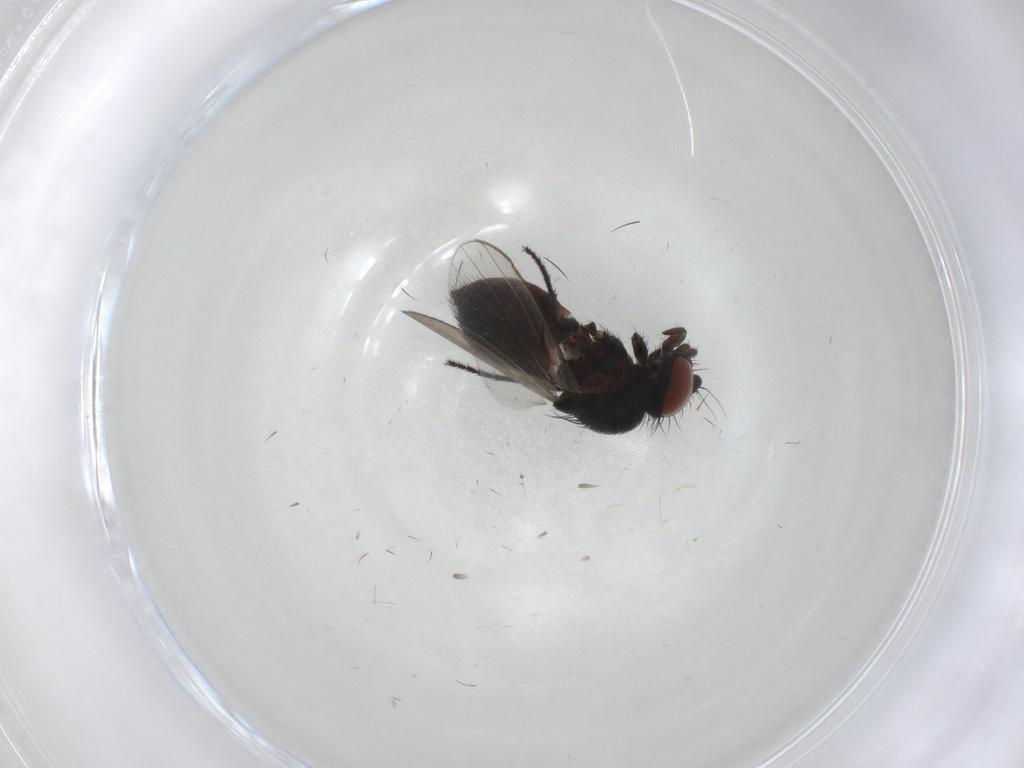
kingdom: Animalia
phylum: Arthropoda
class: Insecta
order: Diptera
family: Milichiidae
